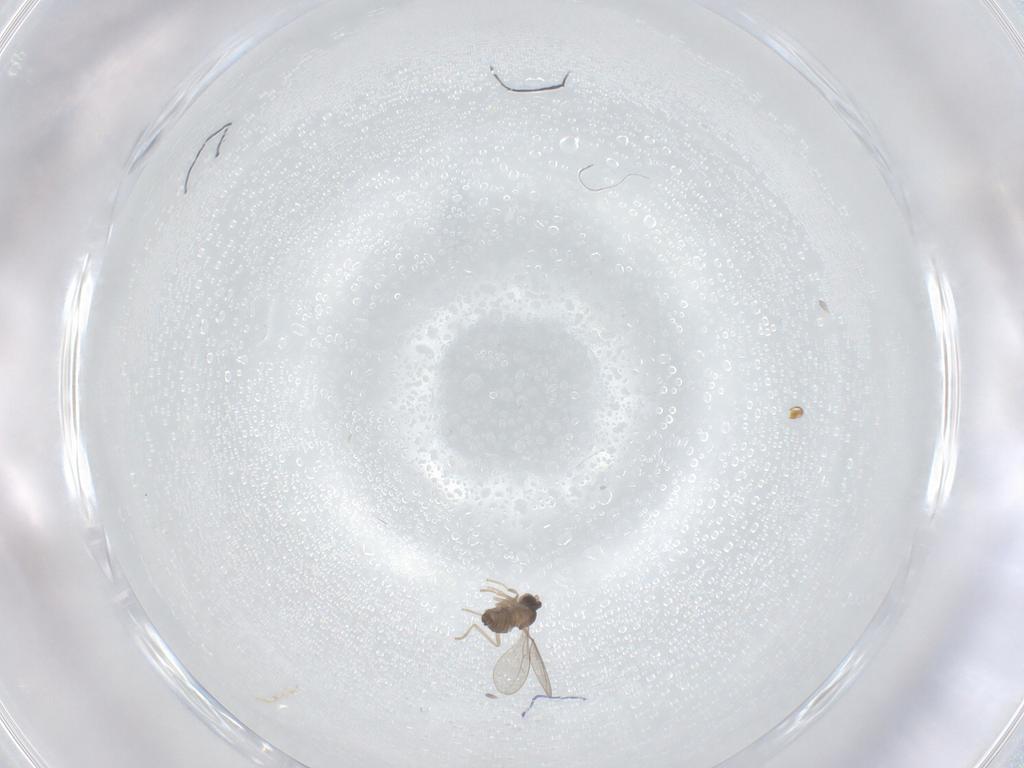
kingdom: Animalia
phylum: Arthropoda
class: Insecta
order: Diptera
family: Cecidomyiidae
